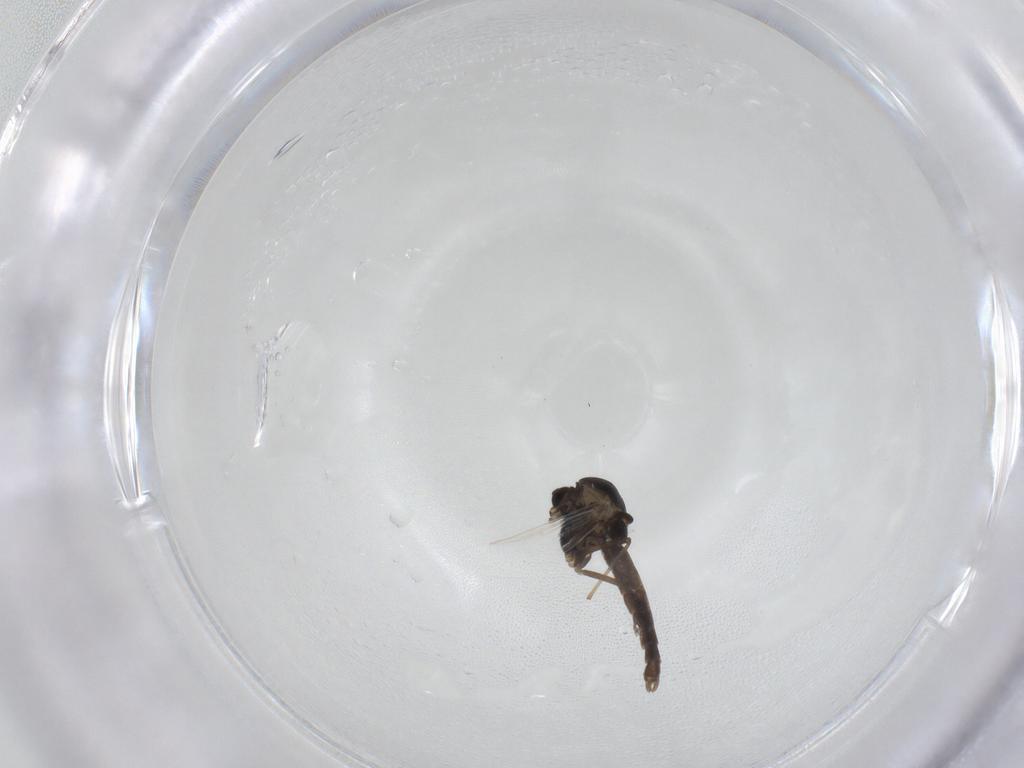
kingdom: Animalia
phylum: Arthropoda
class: Insecta
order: Diptera
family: Chironomidae
